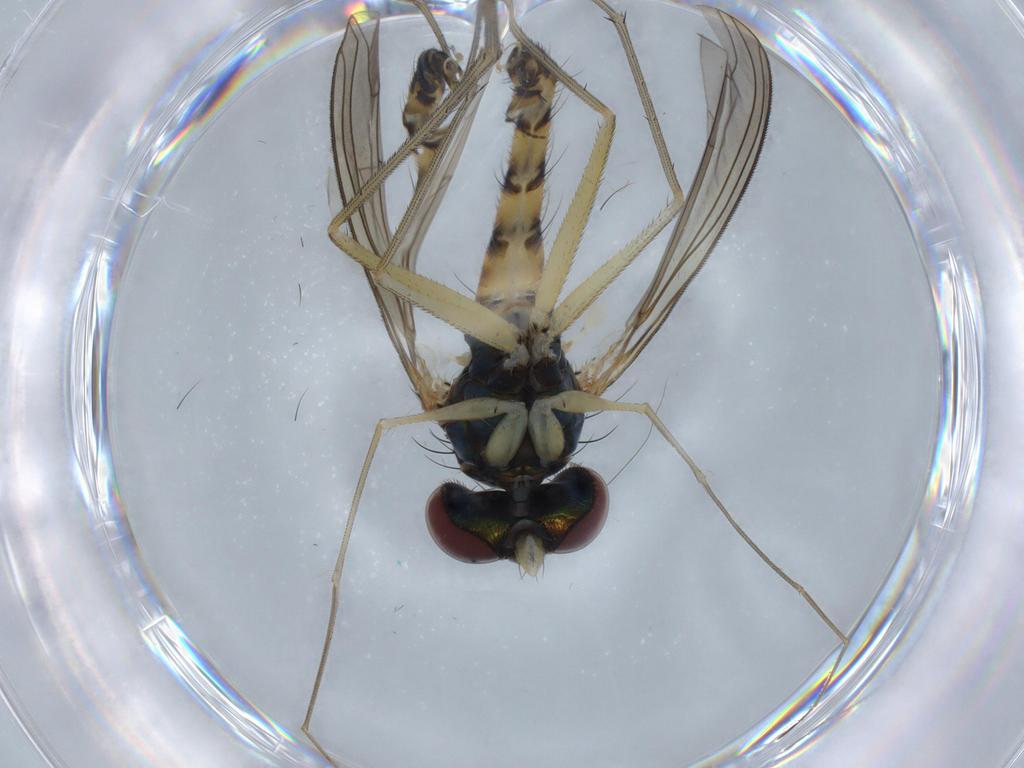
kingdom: Animalia
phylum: Arthropoda
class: Insecta
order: Diptera
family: Dolichopodidae
